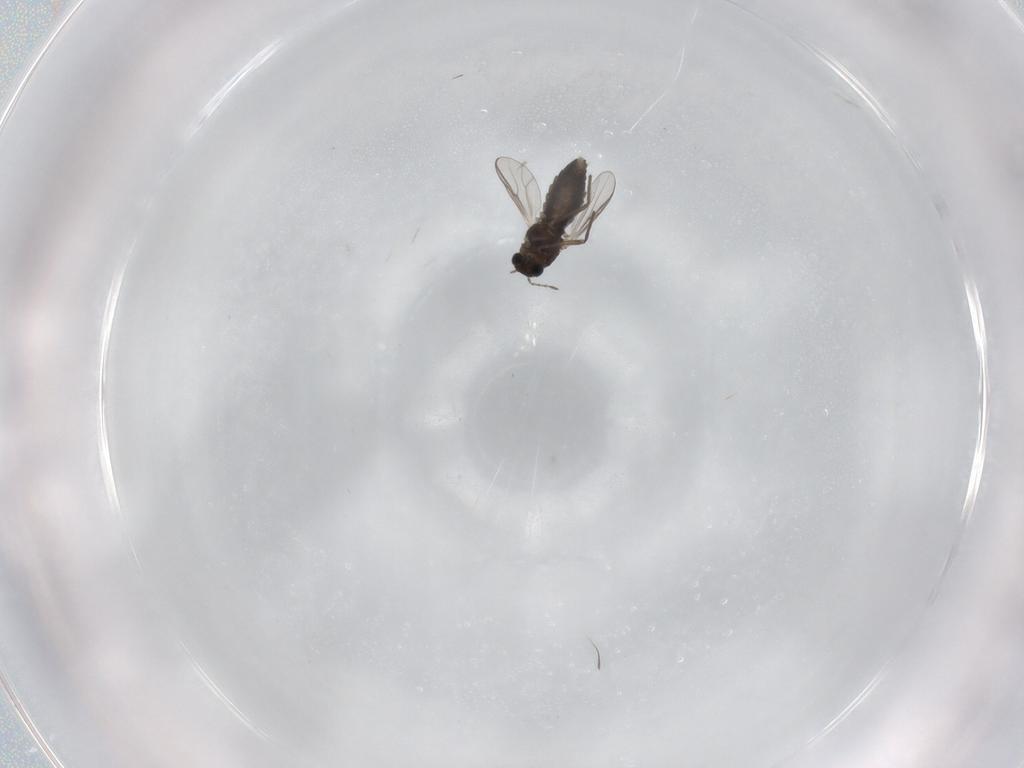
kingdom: Animalia
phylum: Arthropoda
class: Insecta
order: Diptera
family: Chironomidae
